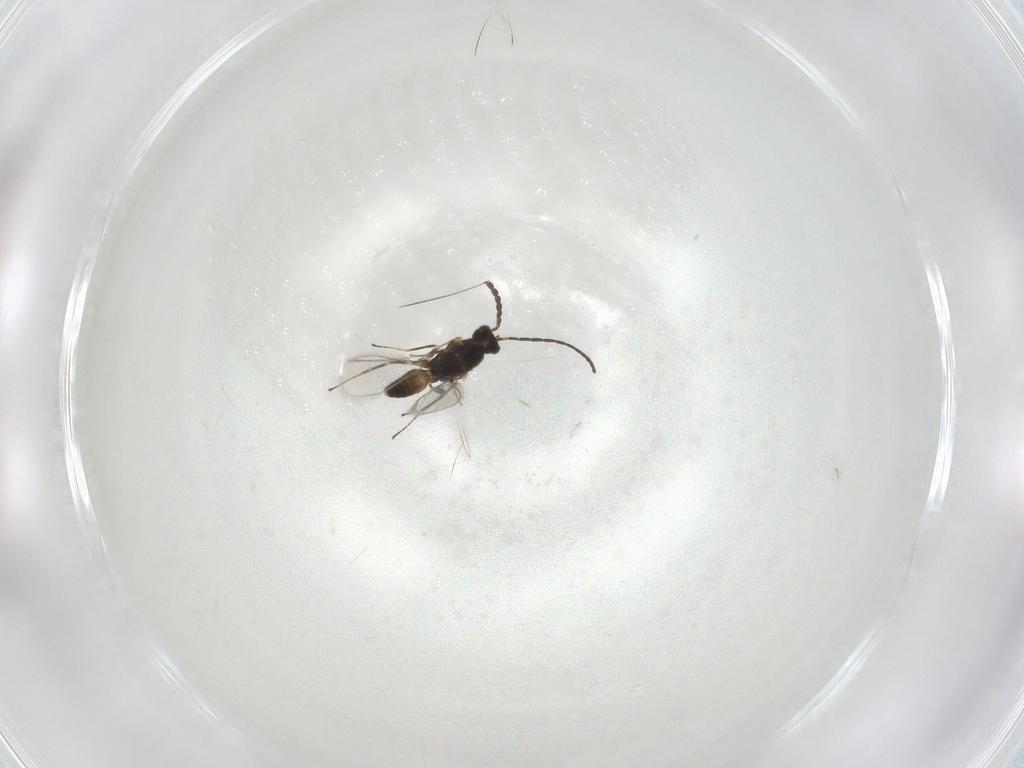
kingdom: Animalia
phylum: Arthropoda
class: Insecta
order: Hymenoptera
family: Mymaridae
